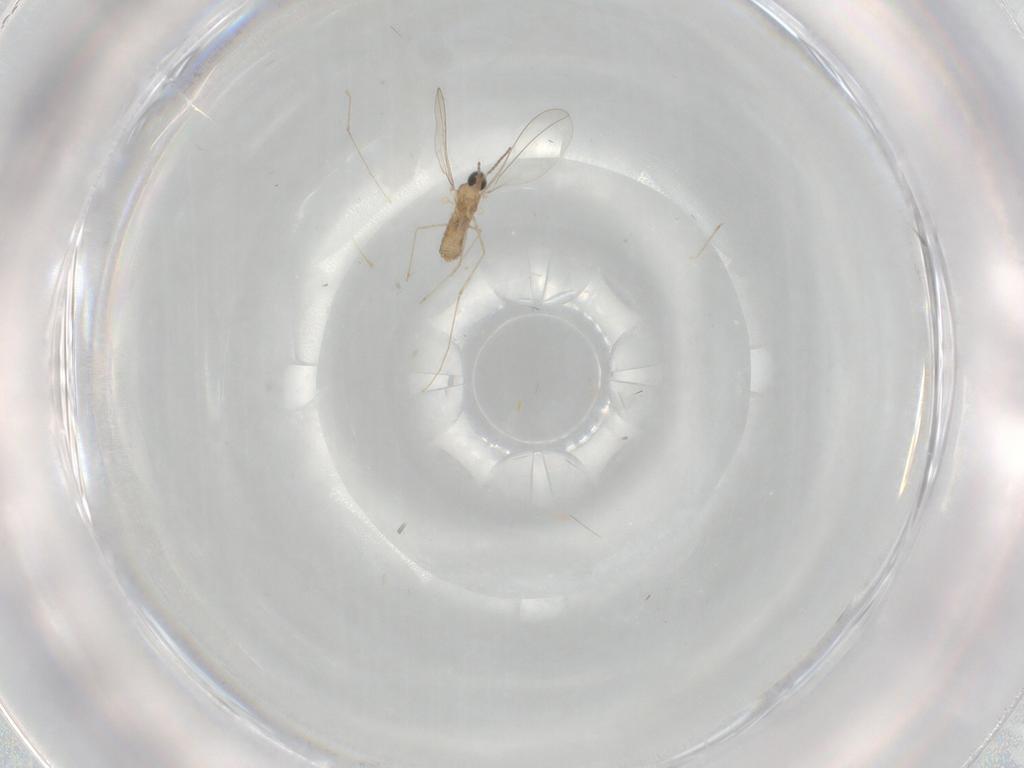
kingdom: Animalia
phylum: Arthropoda
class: Insecta
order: Diptera
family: Cecidomyiidae
